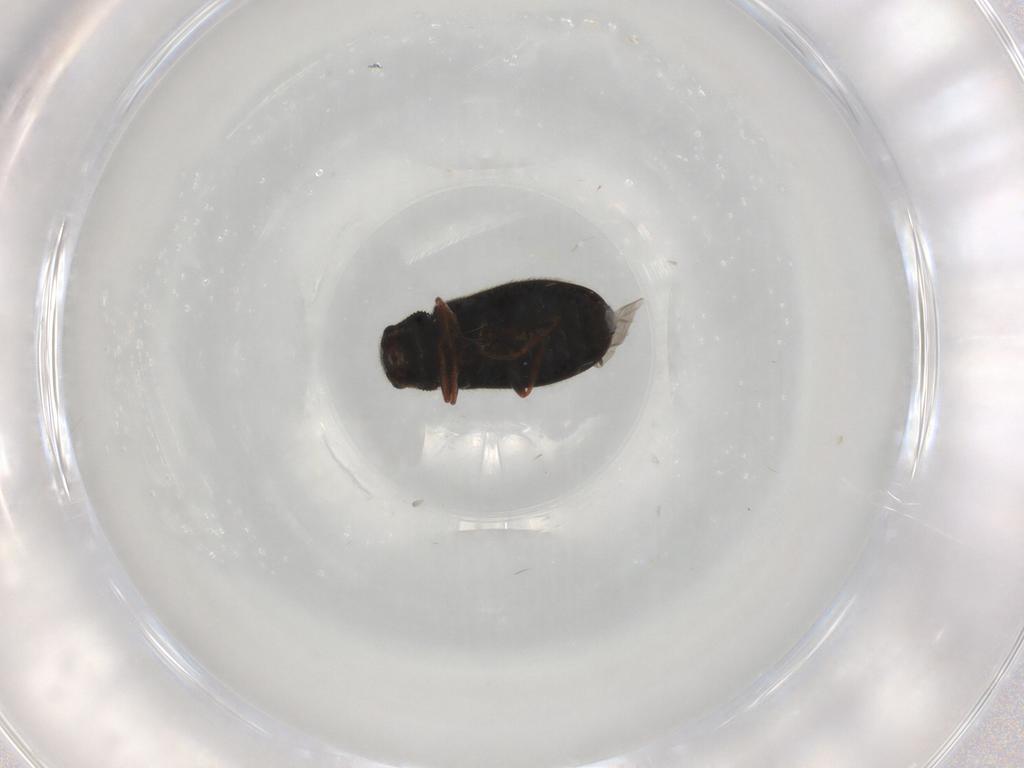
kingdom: Animalia
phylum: Arthropoda
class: Insecta
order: Coleoptera
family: Melyridae
